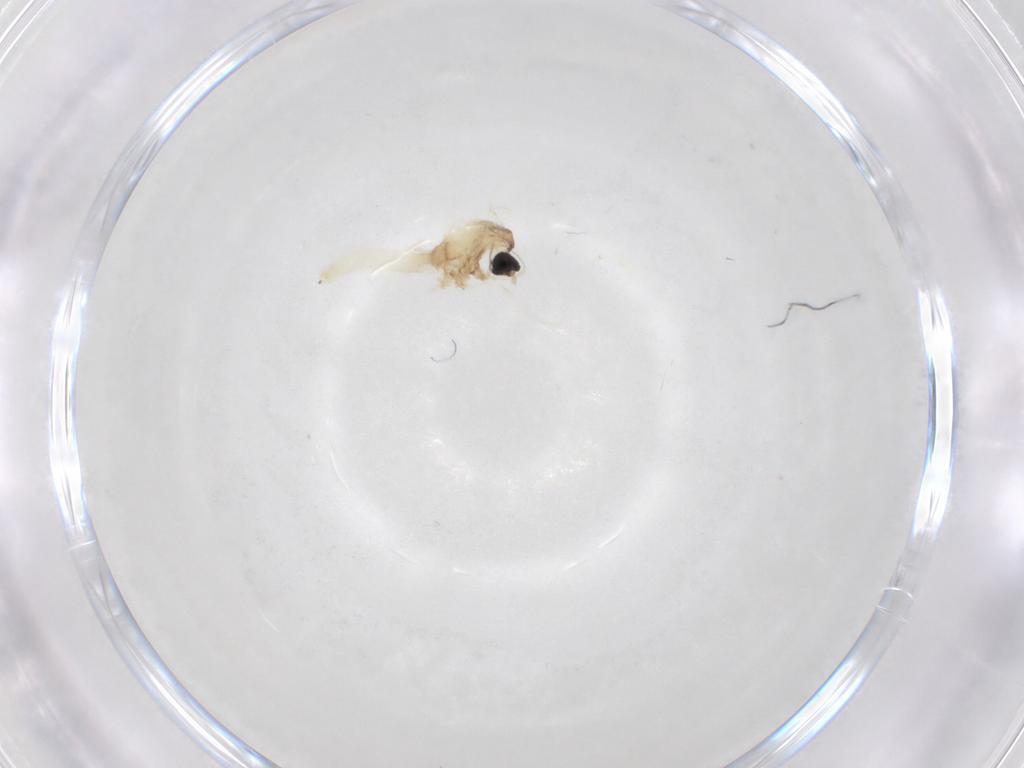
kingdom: Animalia
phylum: Arthropoda
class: Insecta
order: Diptera
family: Cecidomyiidae
